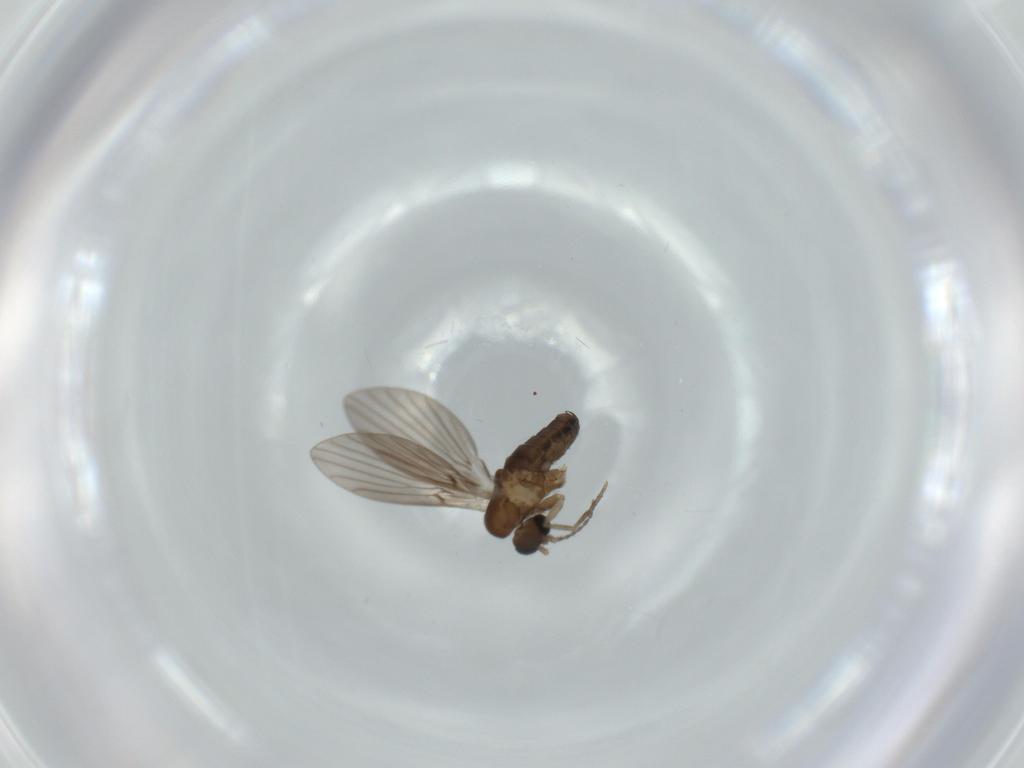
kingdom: Animalia
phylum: Arthropoda
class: Insecta
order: Diptera
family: Psychodidae
